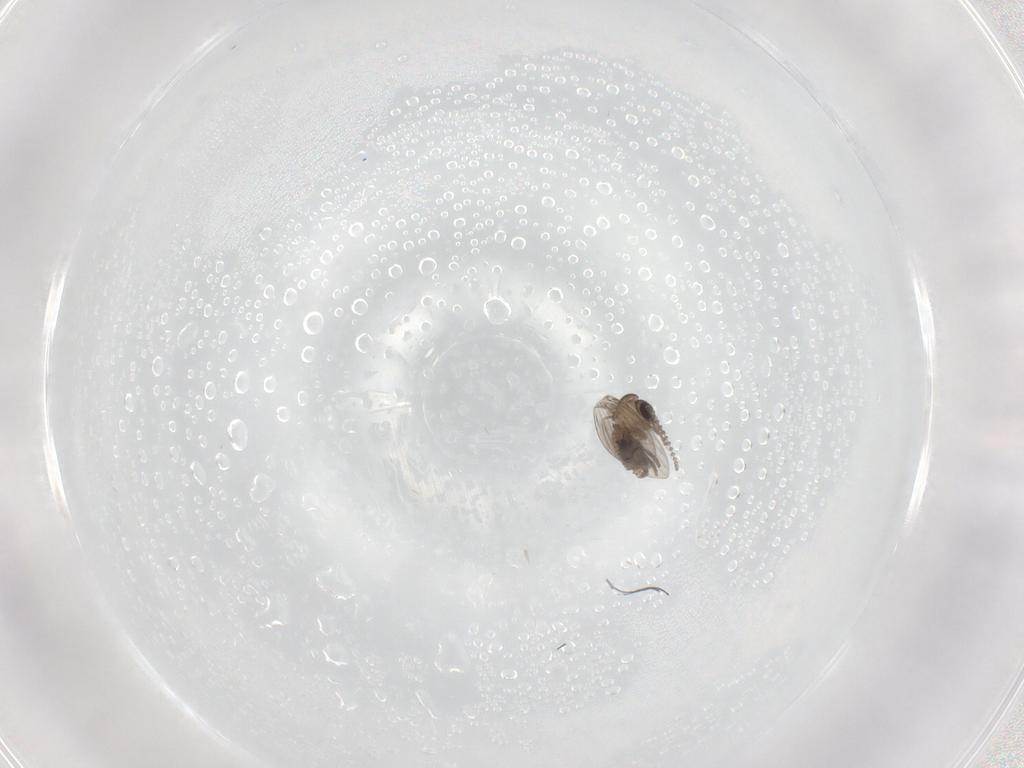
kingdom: Animalia
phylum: Arthropoda
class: Insecta
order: Diptera
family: Psychodidae
